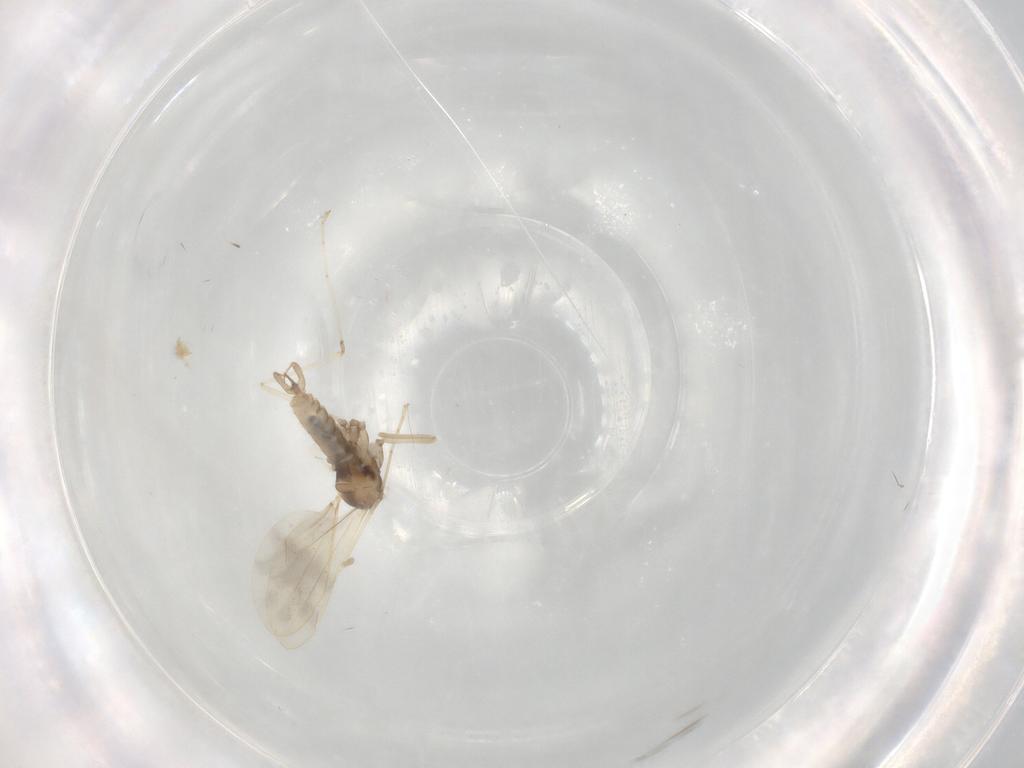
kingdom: Animalia
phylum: Arthropoda
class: Insecta
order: Diptera
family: Cecidomyiidae
